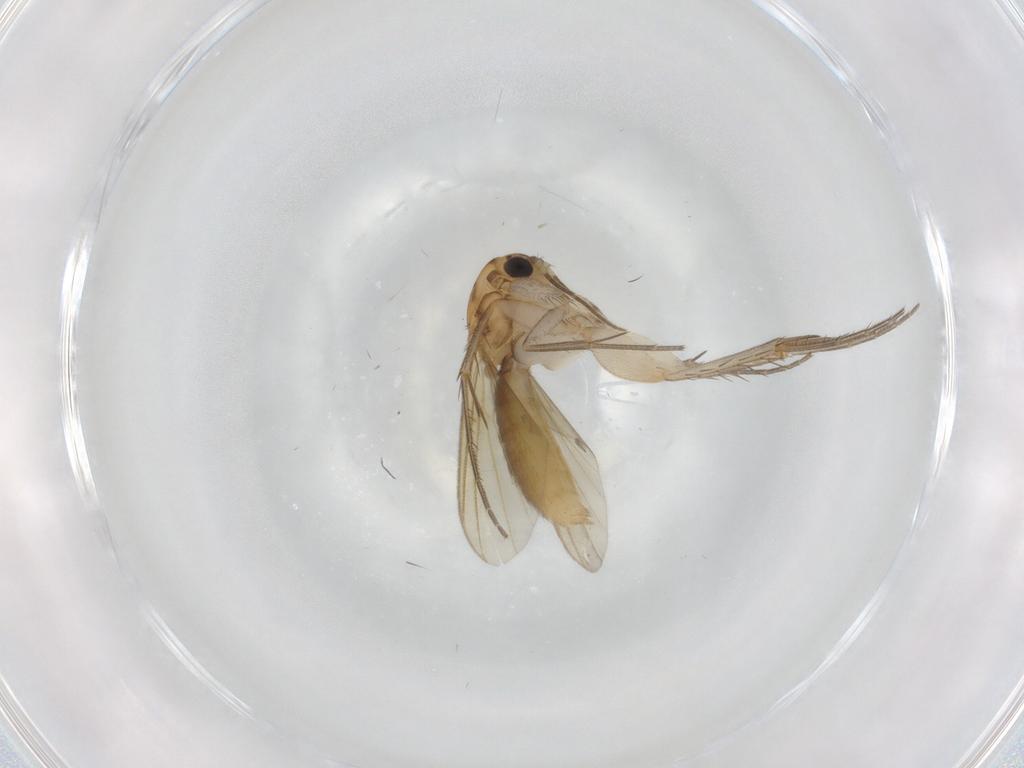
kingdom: Animalia
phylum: Arthropoda
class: Insecta
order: Diptera
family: Mycetophilidae
